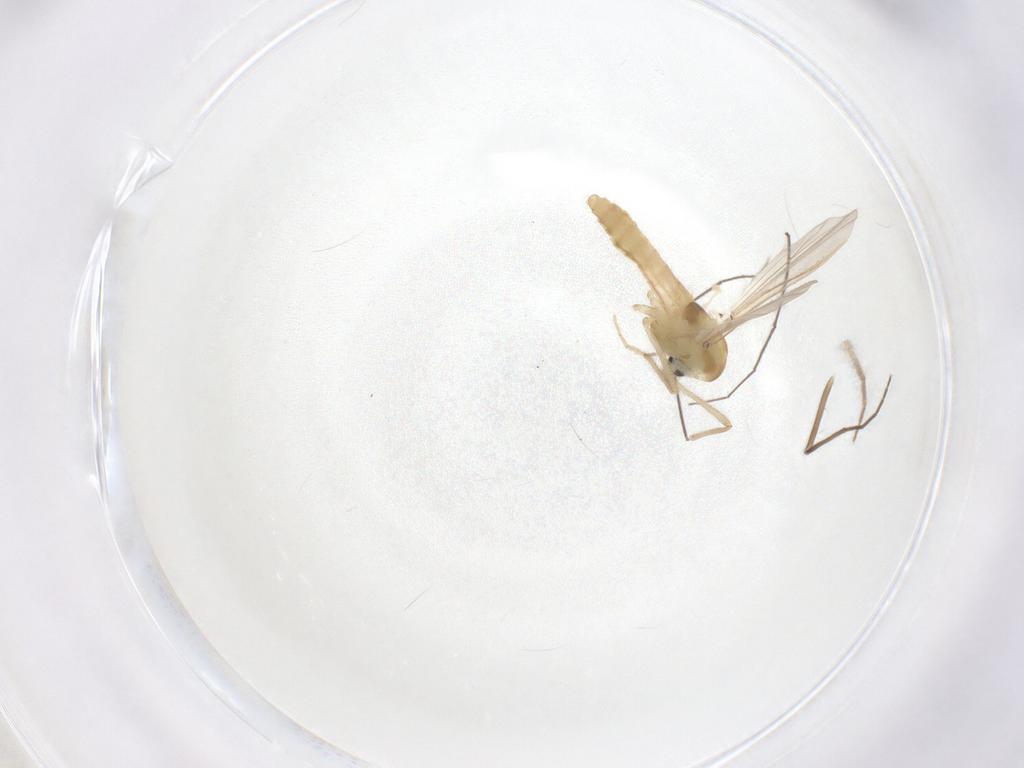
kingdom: Animalia
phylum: Arthropoda
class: Insecta
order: Diptera
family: Chironomidae
